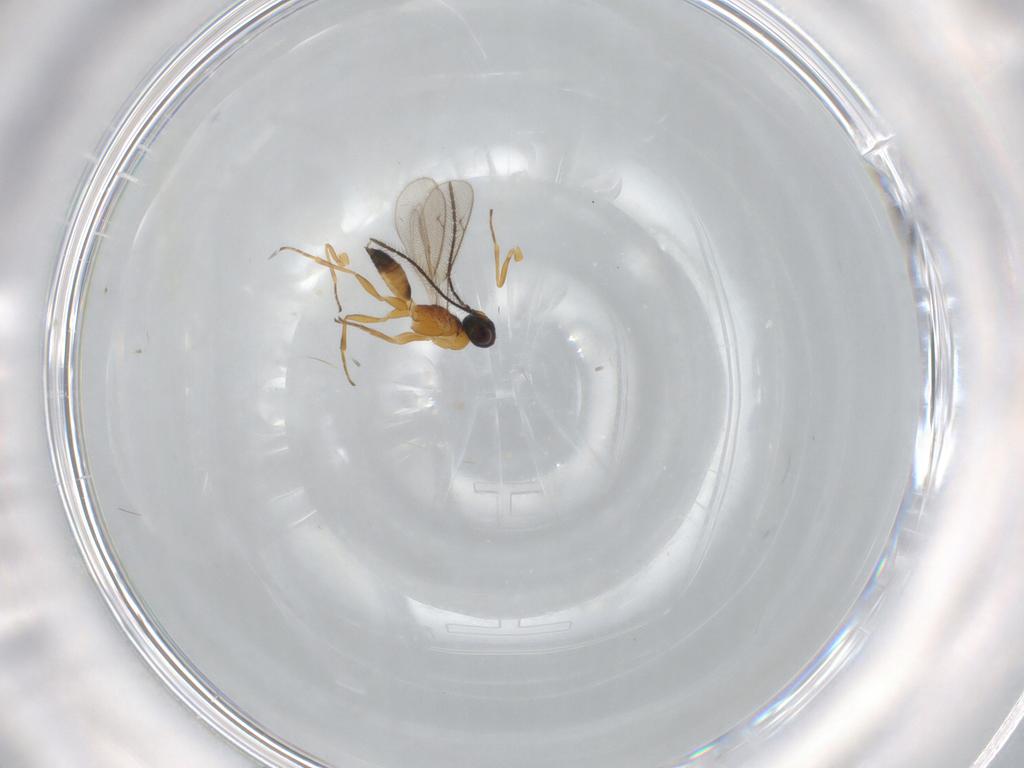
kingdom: Animalia
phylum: Arthropoda
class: Insecta
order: Hymenoptera
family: Eupelmidae
